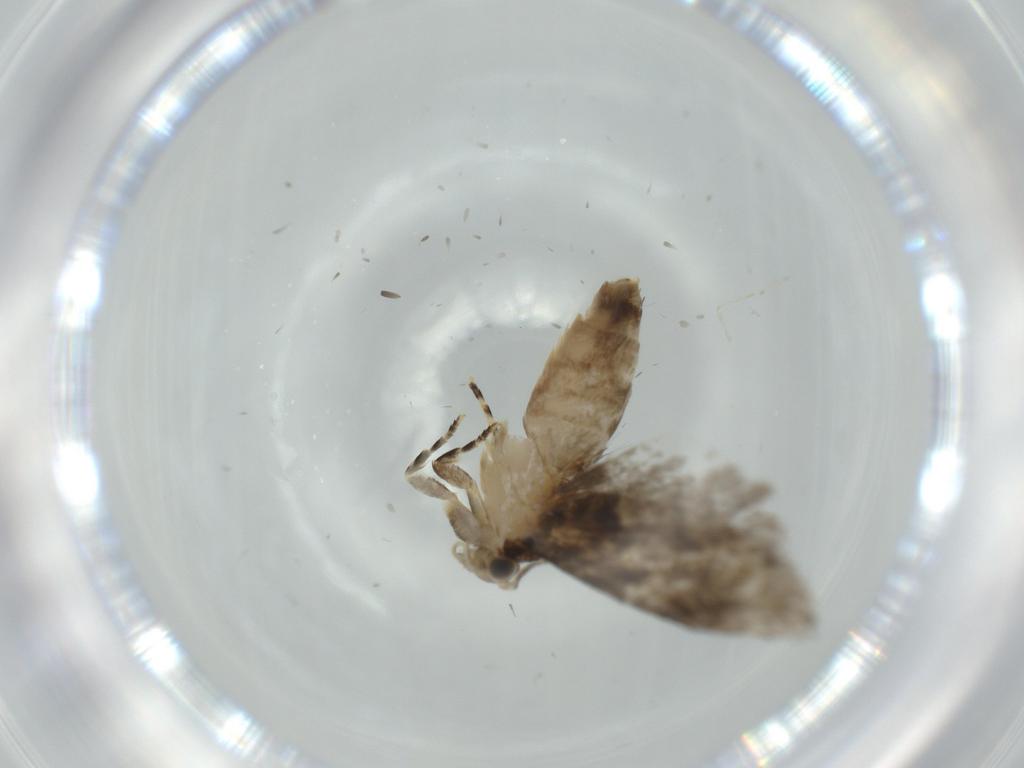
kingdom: Animalia
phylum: Arthropoda
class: Insecta
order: Lepidoptera
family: Tineidae
